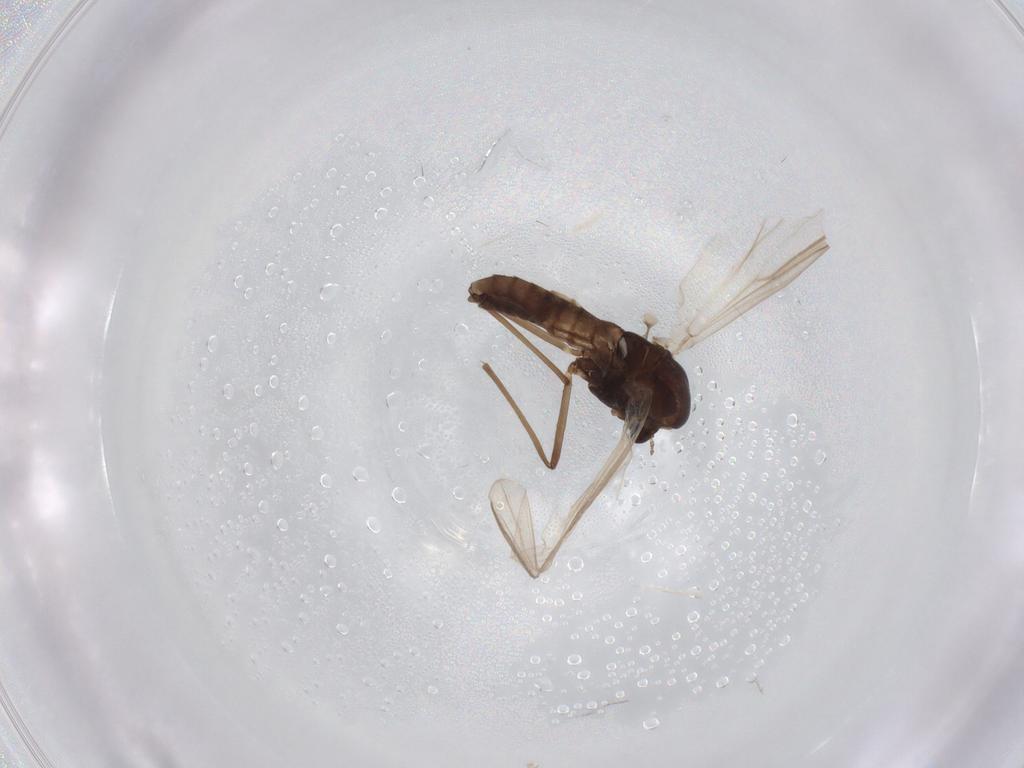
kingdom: Animalia
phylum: Arthropoda
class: Insecta
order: Diptera
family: Chironomidae
